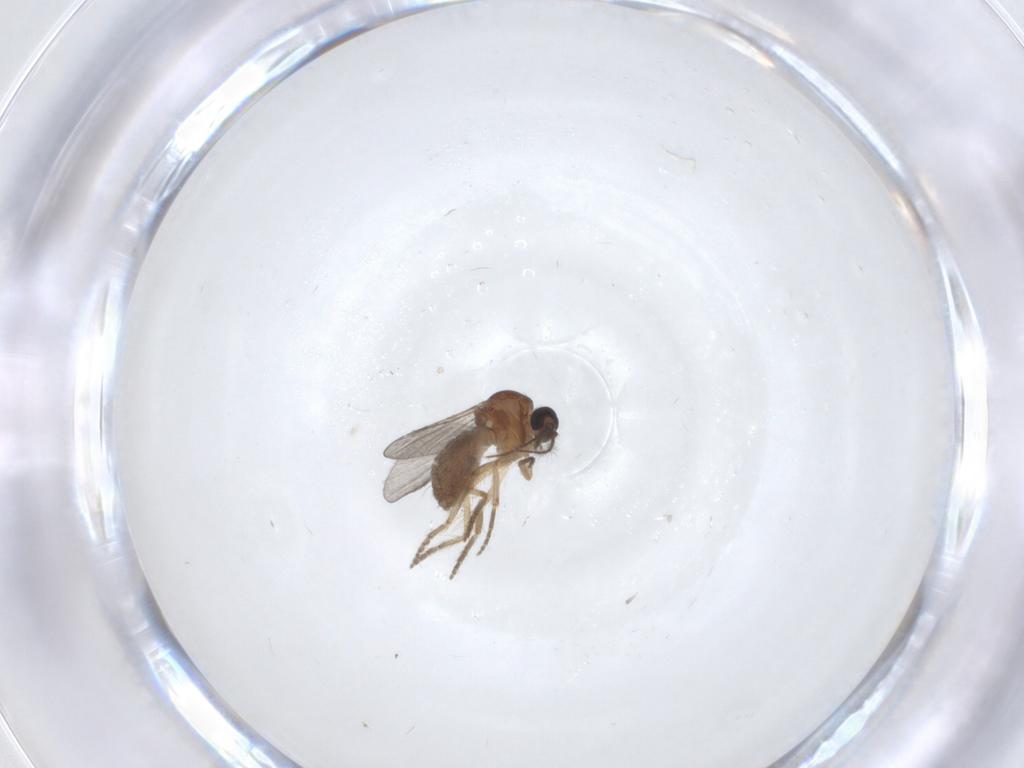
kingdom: Animalia
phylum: Arthropoda
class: Insecta
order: Diptera
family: Ceratopogonidae
